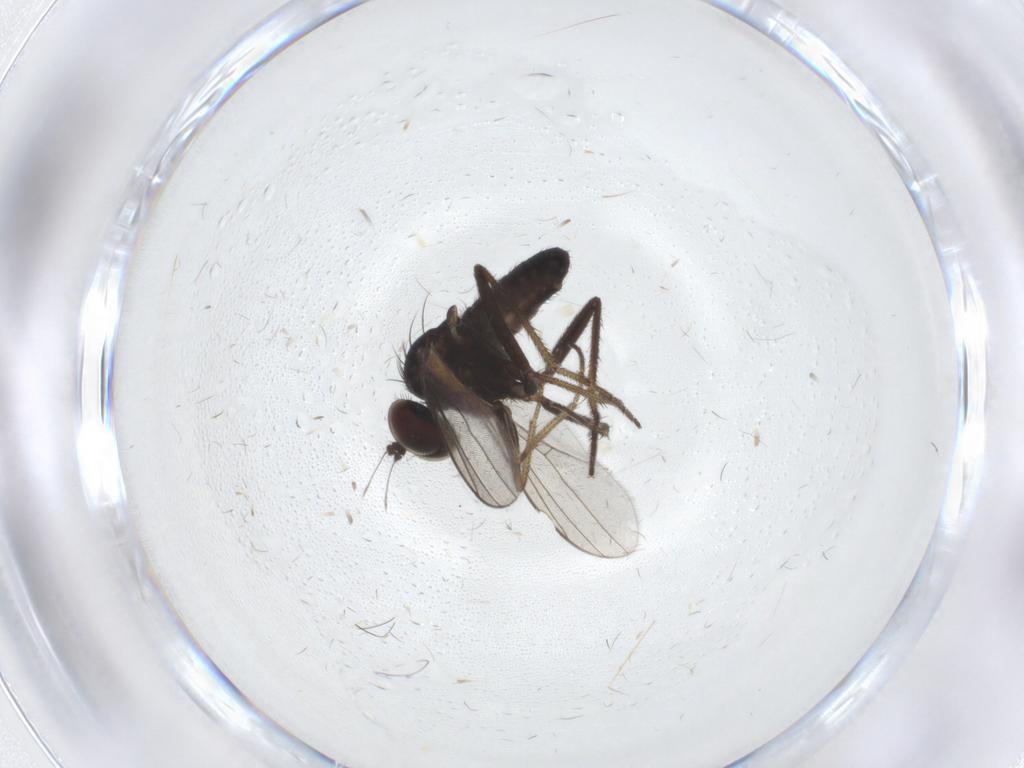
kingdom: Animalia
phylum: Arthropoda
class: Insecta
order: Diptera
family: Dolichopodidae
